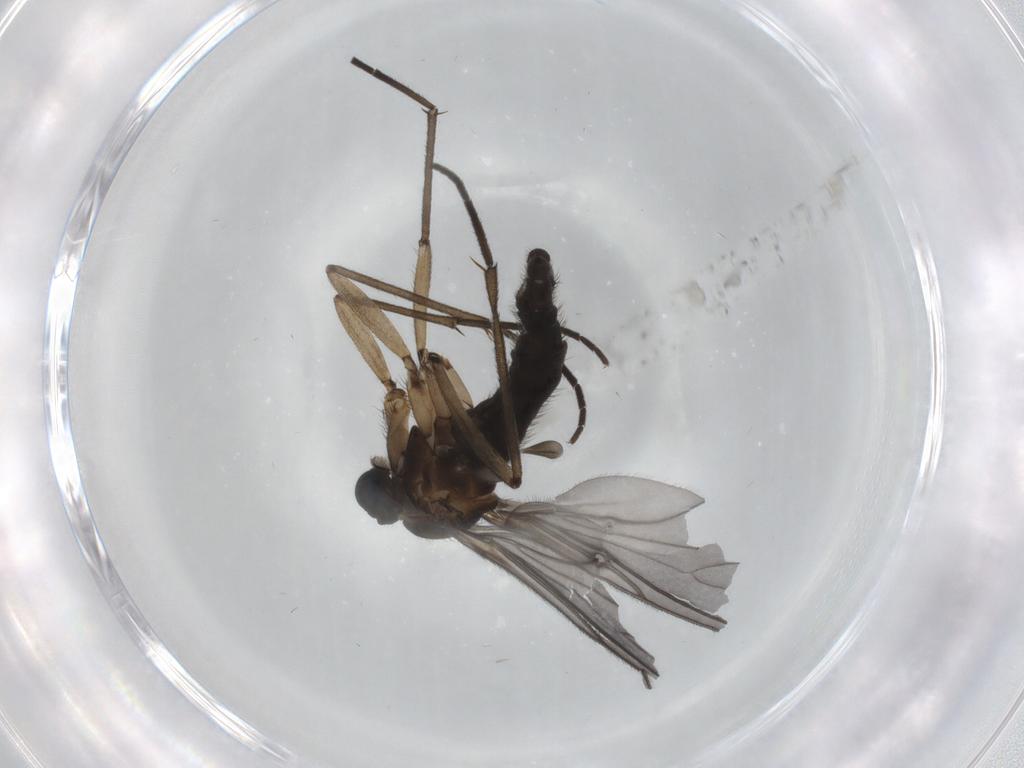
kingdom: Animalia
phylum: Arthropoda
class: Insecta
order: Diptera
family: Sciaridae
